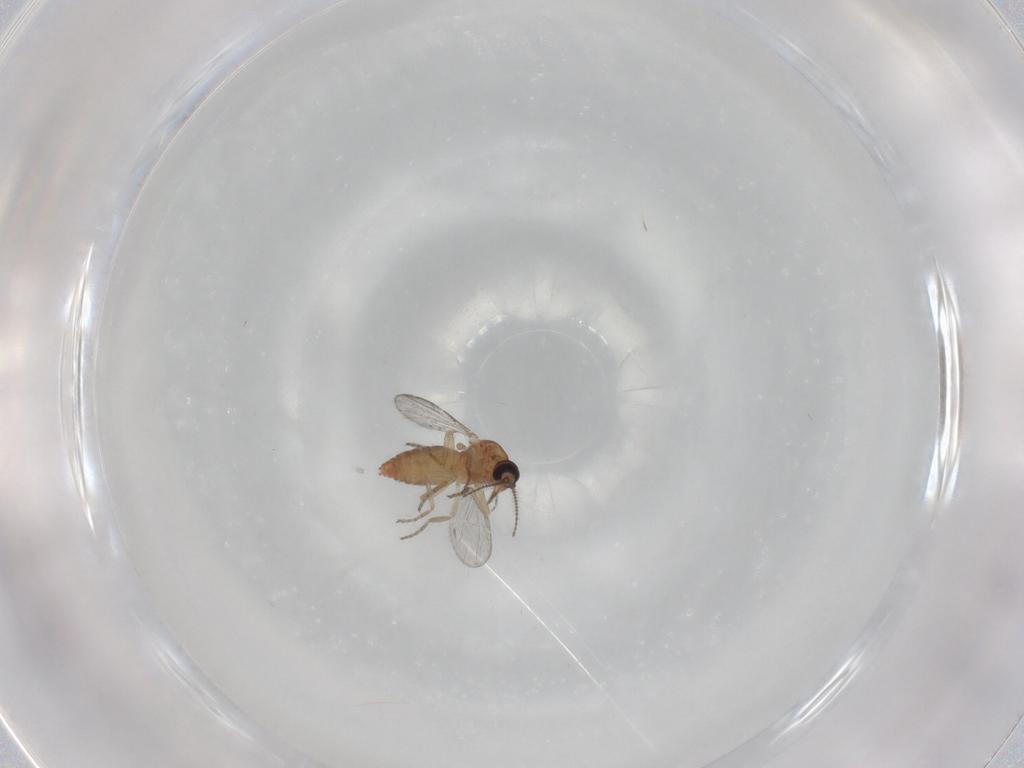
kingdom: Animalia
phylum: Arthropoda
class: Insecta
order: Diptera
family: Ceratopogonidae
